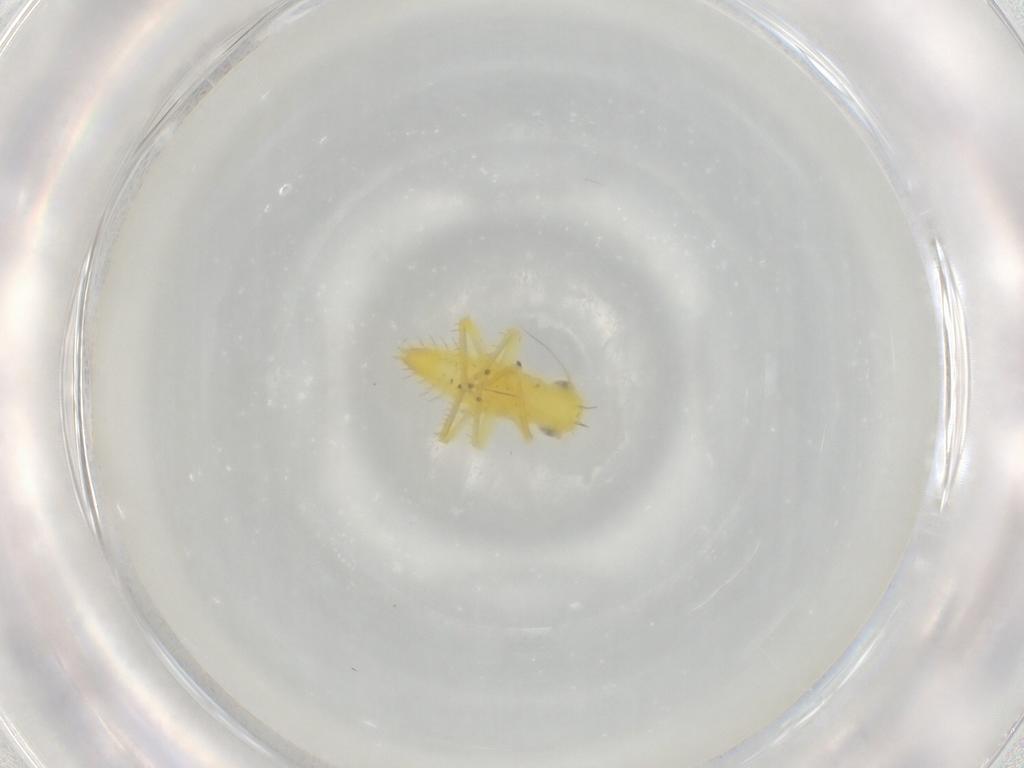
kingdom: Animalia
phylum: Arthropoda
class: Insecta
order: Hemiptera
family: Cicadellidae
